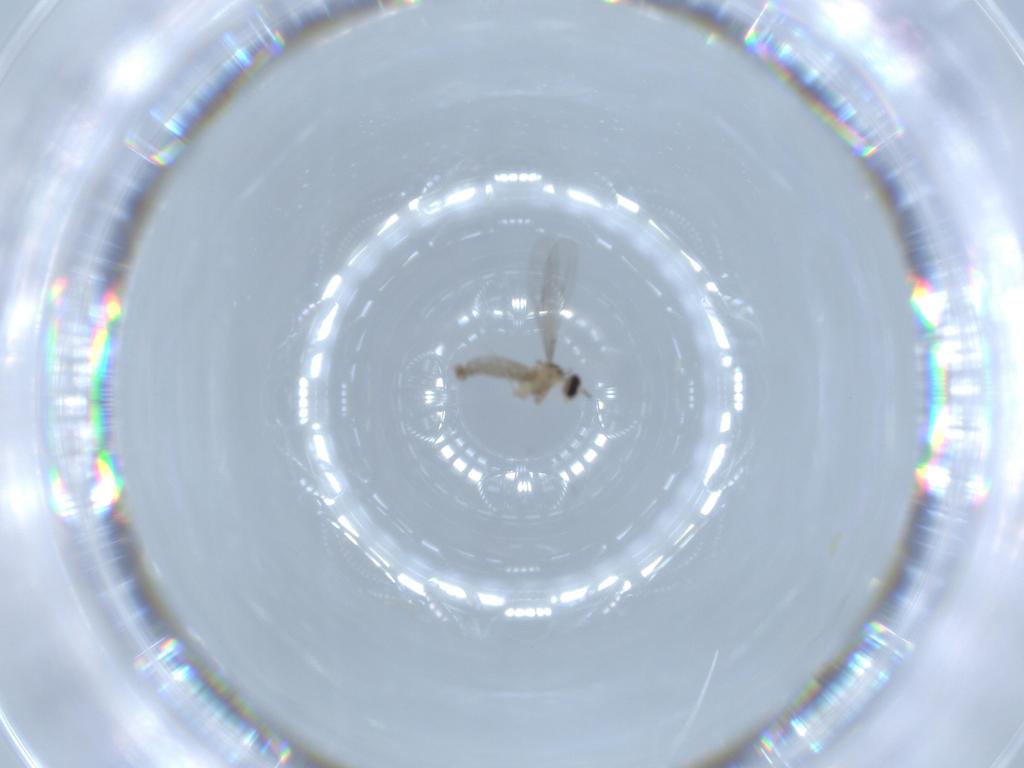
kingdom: Animalia
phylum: Arthropoda
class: Insecta
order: Diptera
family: Cecidomyiidae
